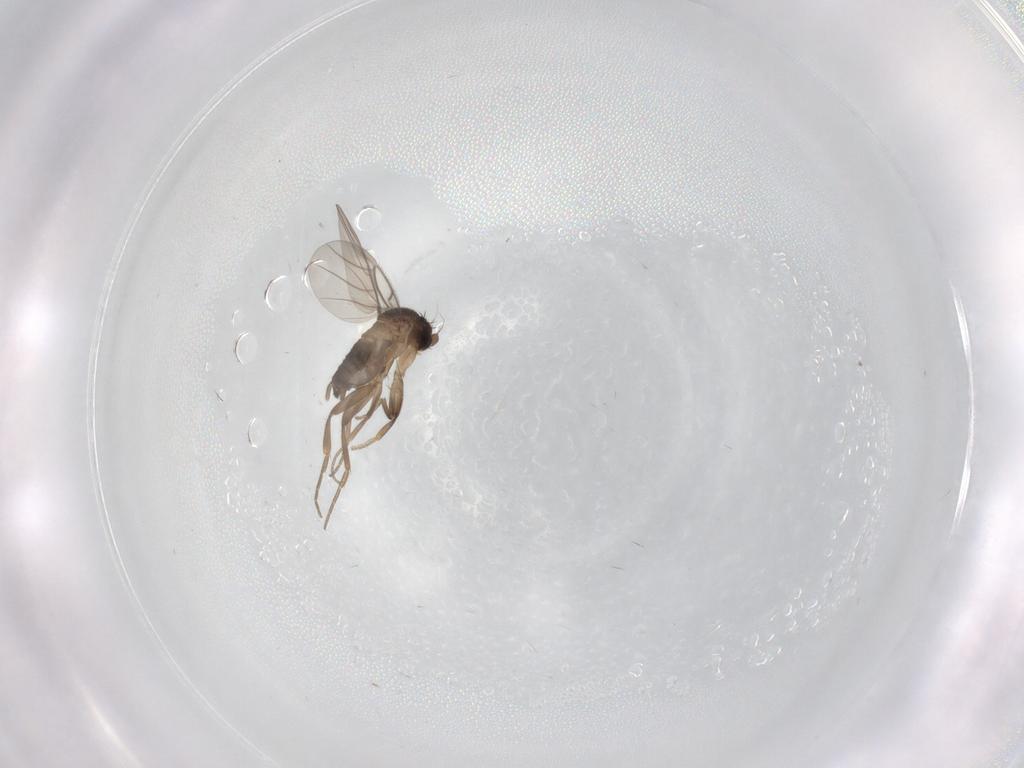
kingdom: Animalia
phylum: Arthropoda
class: Insecta
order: Diptera
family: Phoridae
